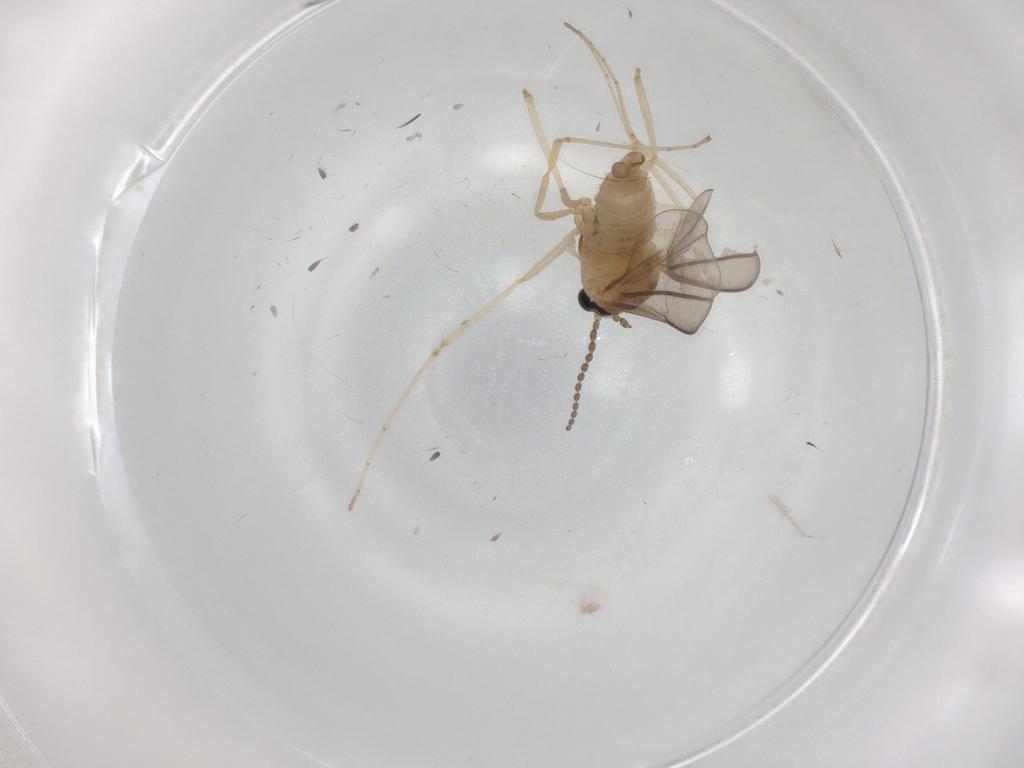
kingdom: Animalia
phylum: Arthropoda
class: Insecta
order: Diptera
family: Cecidomyiidae
